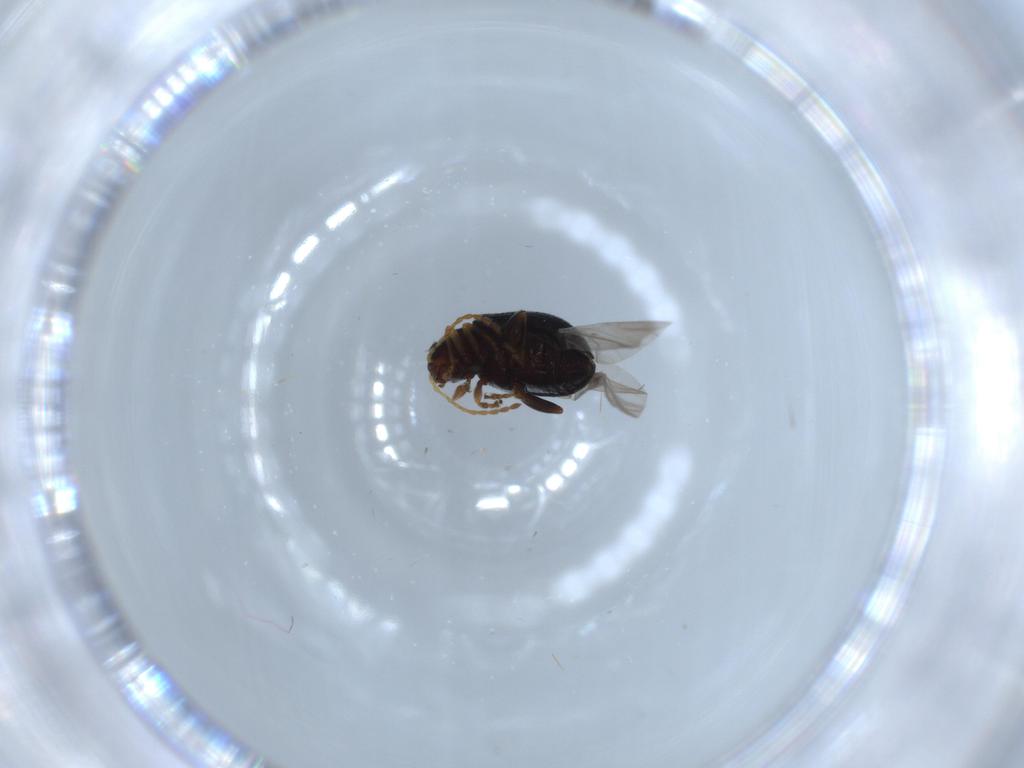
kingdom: Animalia
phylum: Arthropoda
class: Insecta
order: Coleoptera
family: Chrysomelidae
